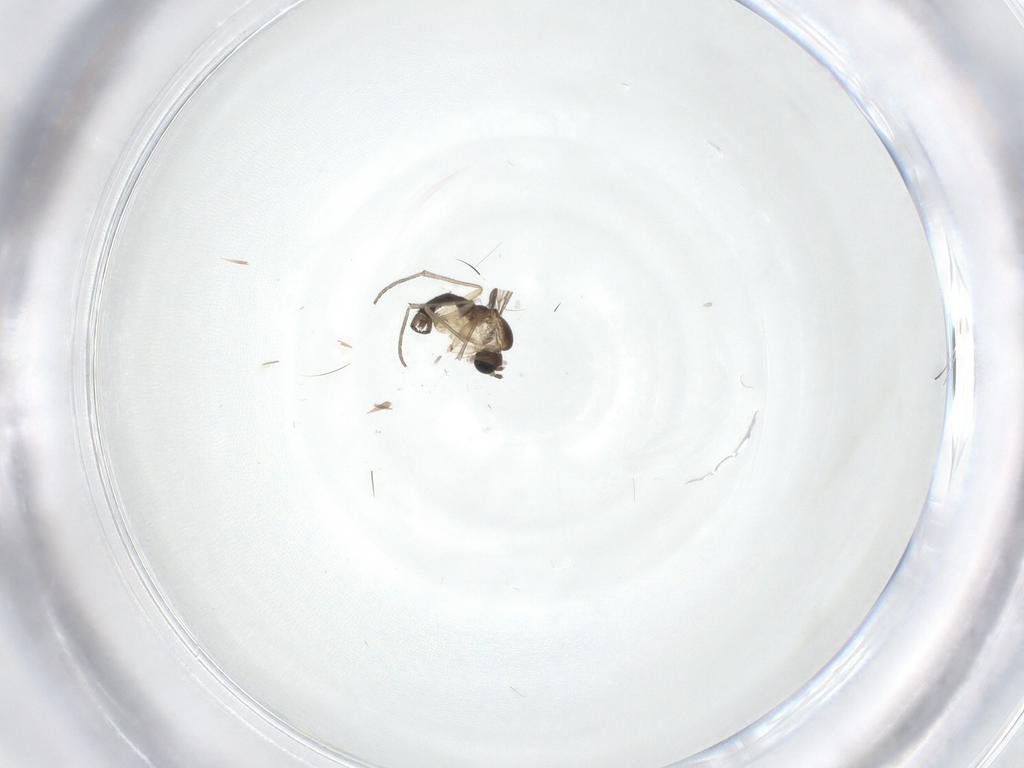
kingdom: Animalia
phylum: Arthropoda
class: Insecta
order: Diptera
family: Sciaridae
